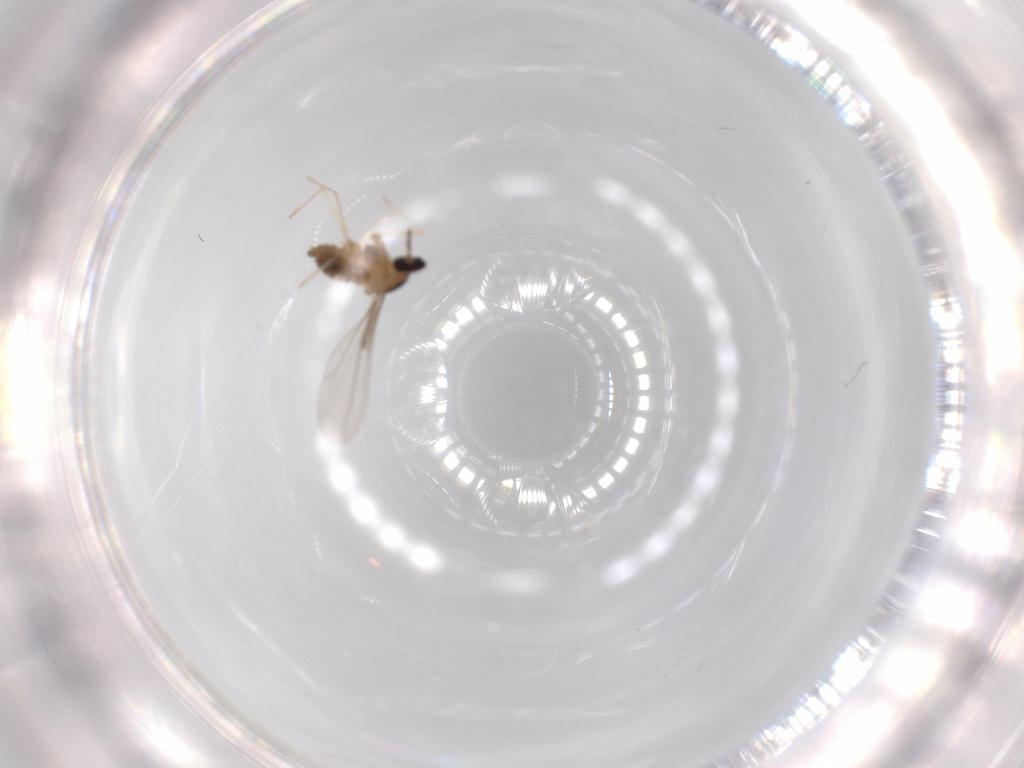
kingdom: Animalia
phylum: Arthropoda
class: Insecta
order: Diptera
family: Cecidomyiidae
